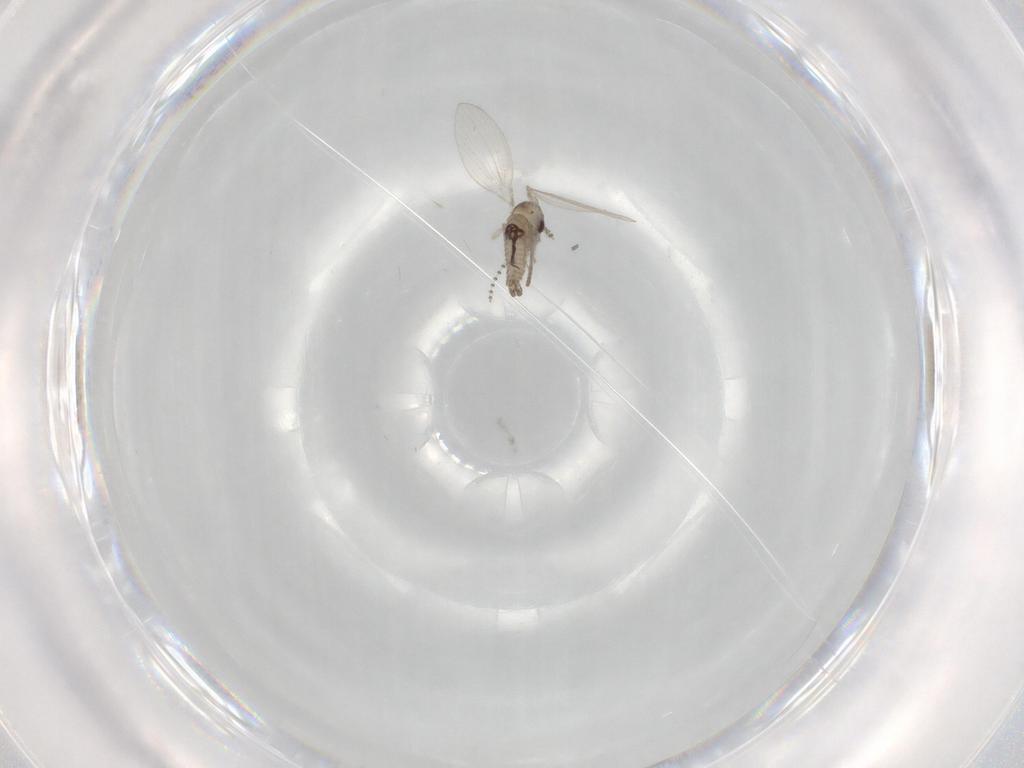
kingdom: Animalia
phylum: Arthropoda
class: Insecta
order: Diptera
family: Psychodidae
